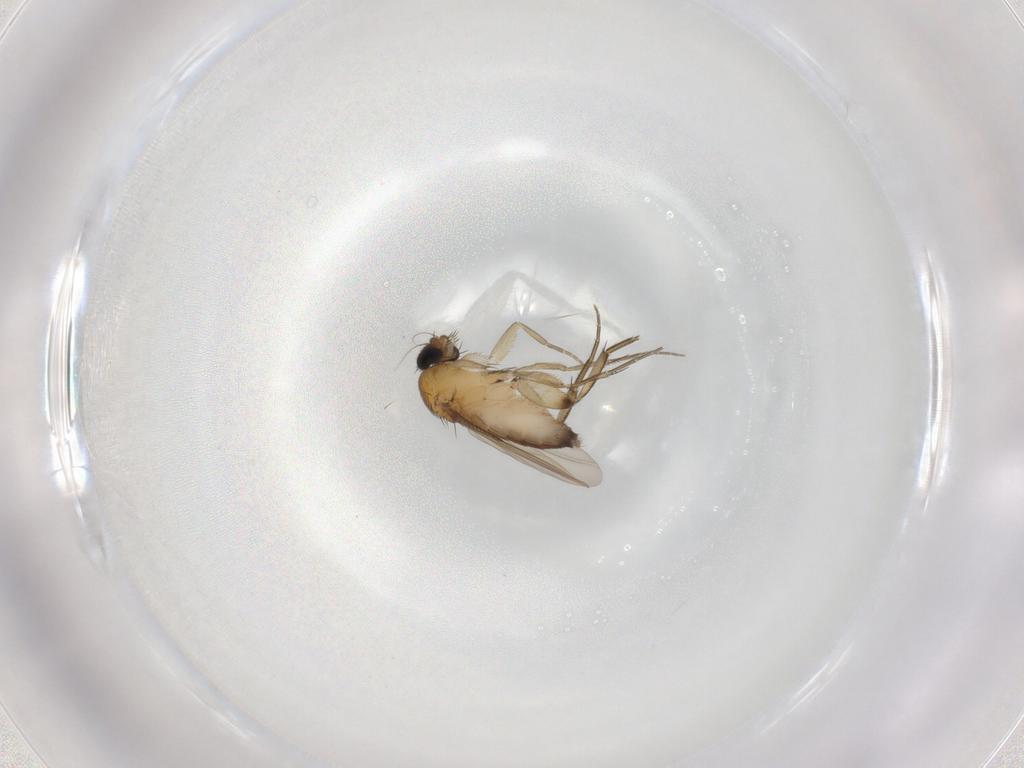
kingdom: Animalia
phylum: Arthropoda
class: Insecta
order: Diptera
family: Phoridae
